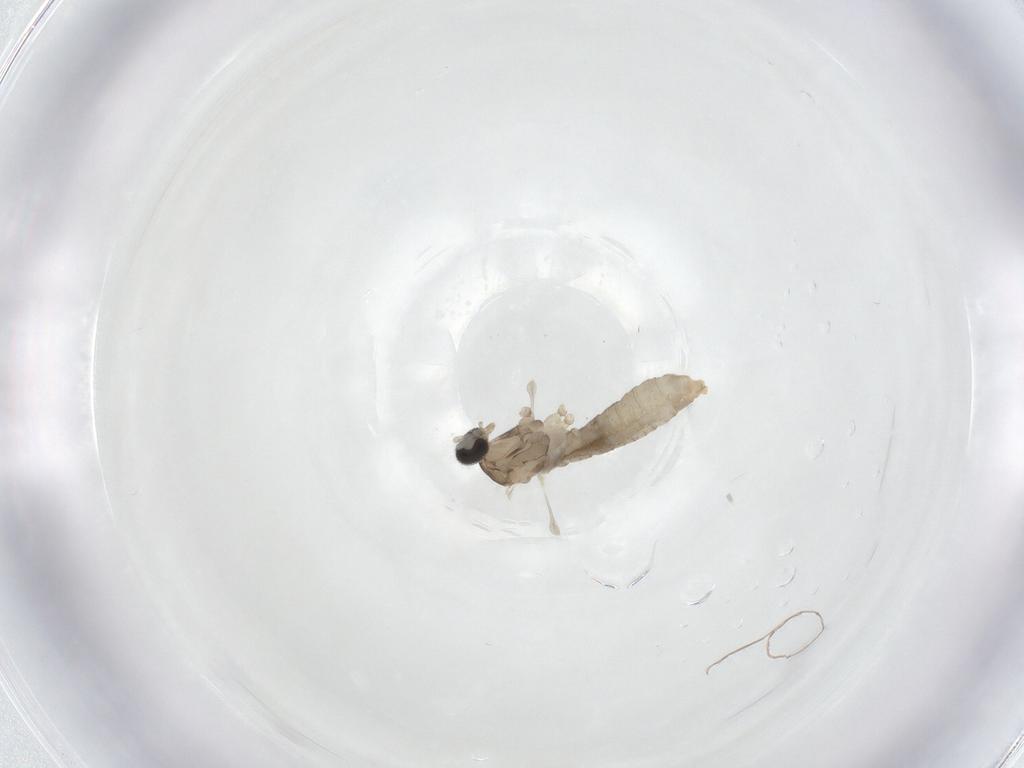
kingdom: Animalia
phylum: Arthropoda
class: Insecta
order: Diptera
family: Cecidomyiidae
